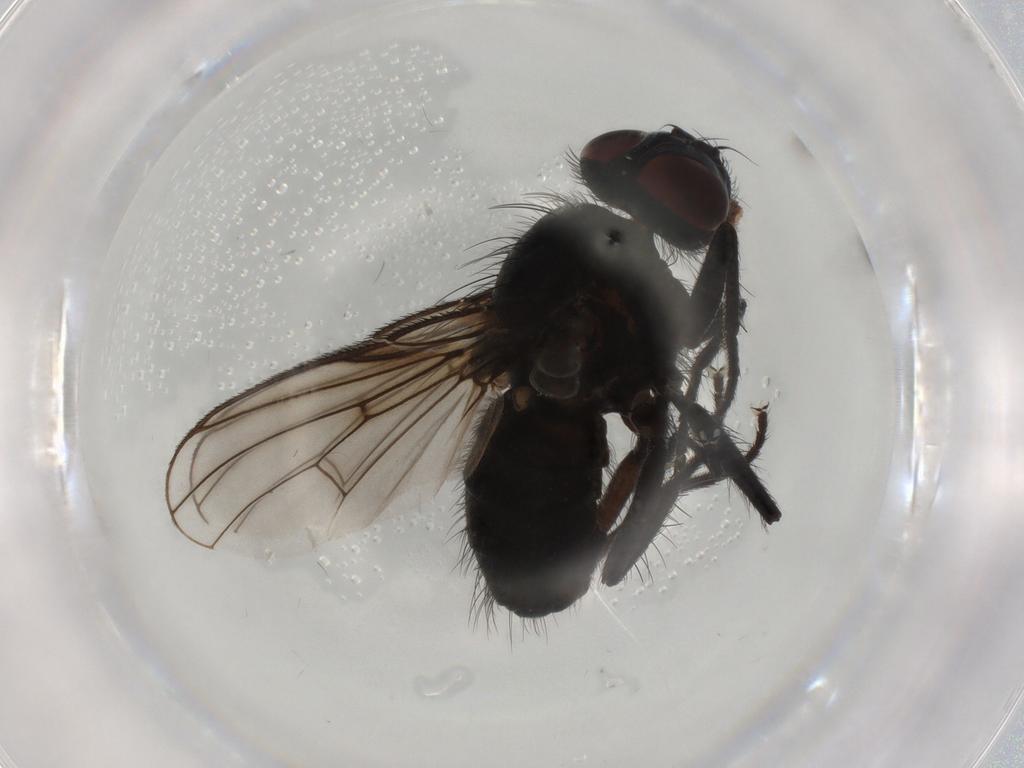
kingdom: Animalia
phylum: Arthropoda
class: Insecta
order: Diptera
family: Muscidae
